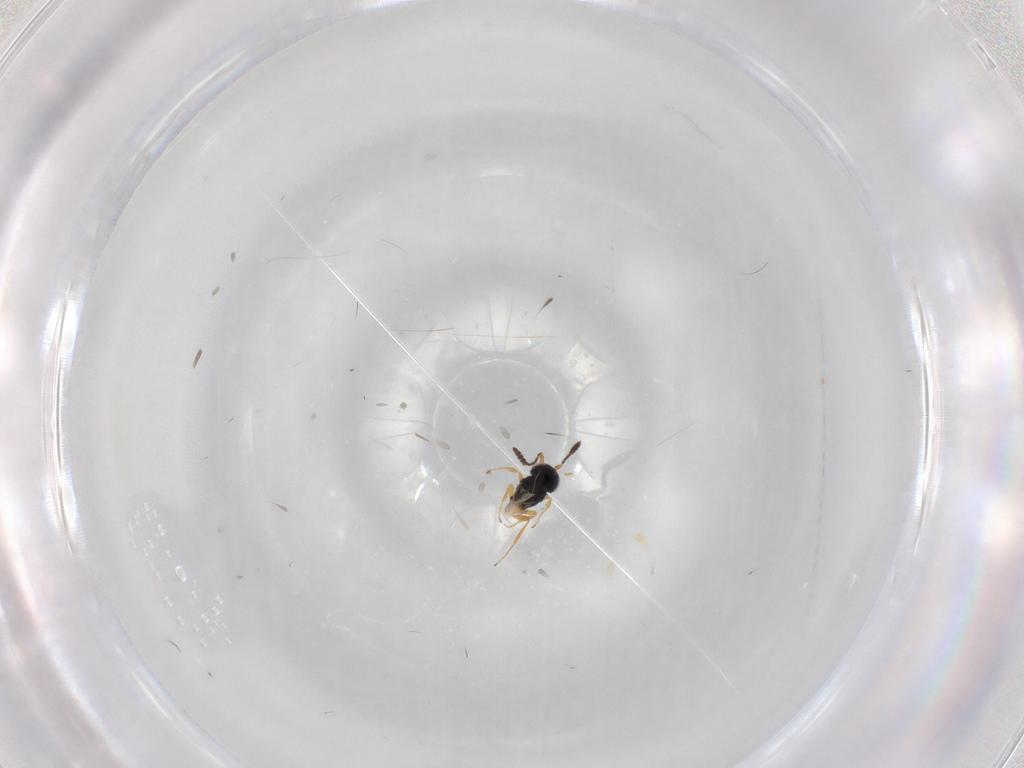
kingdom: Animalia
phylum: Arthropoda
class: Insecta
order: Hymenoptera
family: Scelionidae
